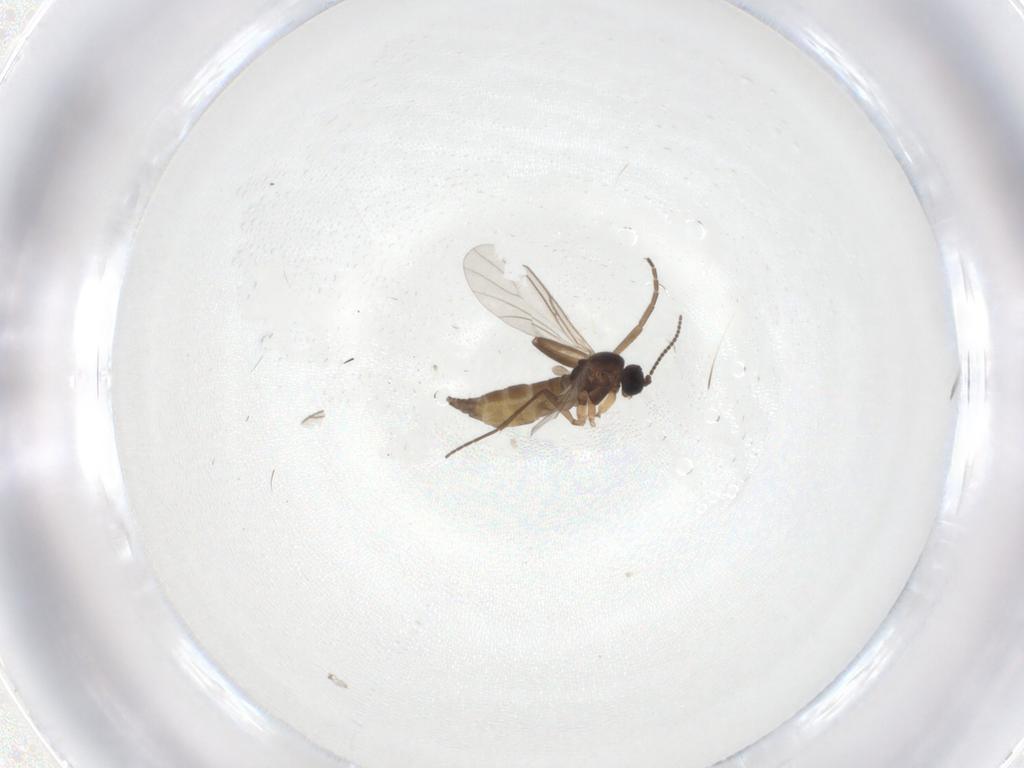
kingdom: Animalia
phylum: Arthropoda
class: Insecta
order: Diptera
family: Sciaridae
